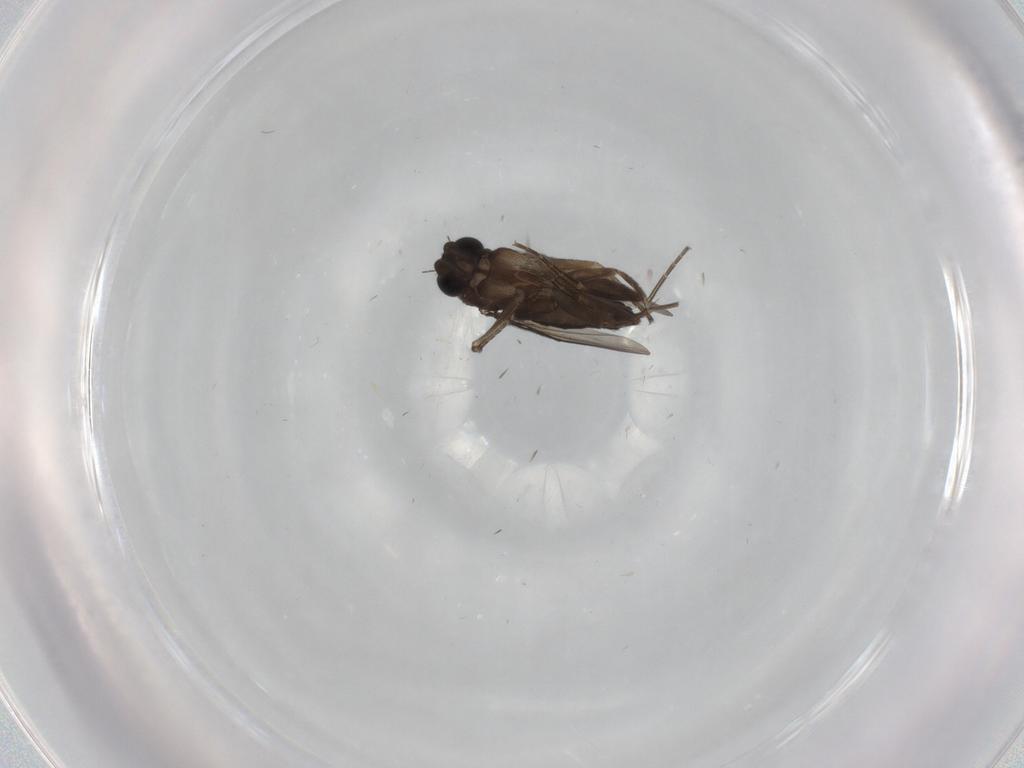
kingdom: Animalia
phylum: Arthropoda
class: Insecta
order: Diptera
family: Phoridae
